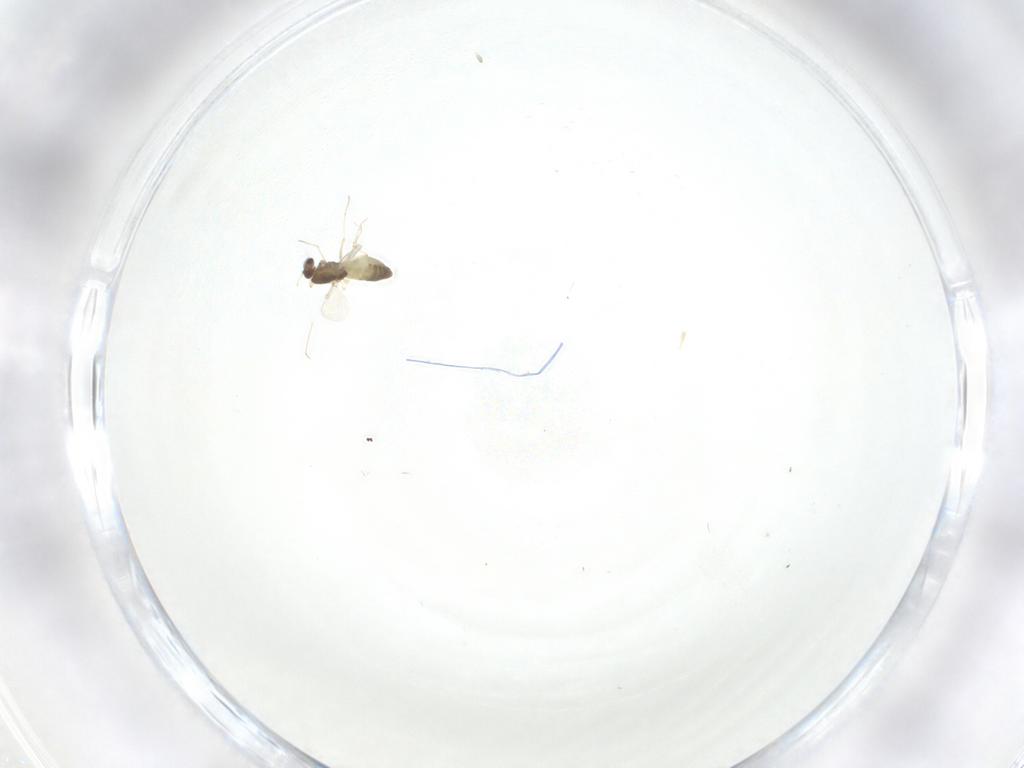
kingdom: Animalia
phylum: Arthropoda
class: Insecta
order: Diptera
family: Chironomidae
